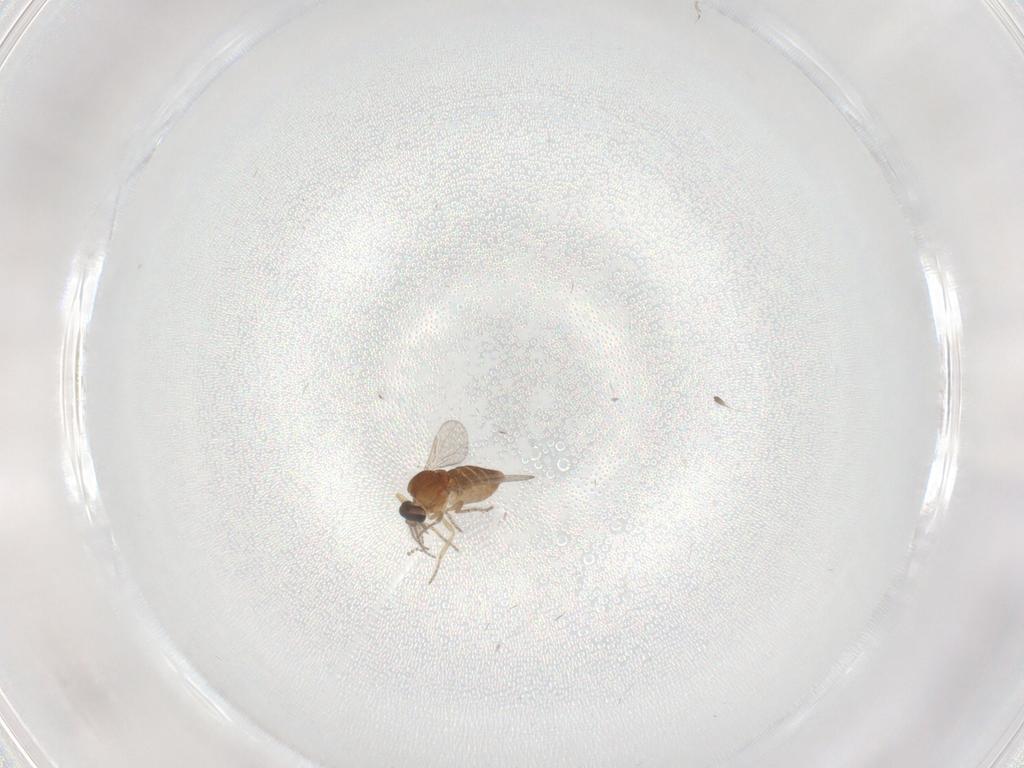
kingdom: Animalia
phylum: Arthropoda
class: Insecta
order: Diptera
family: Ceratopogonidae
